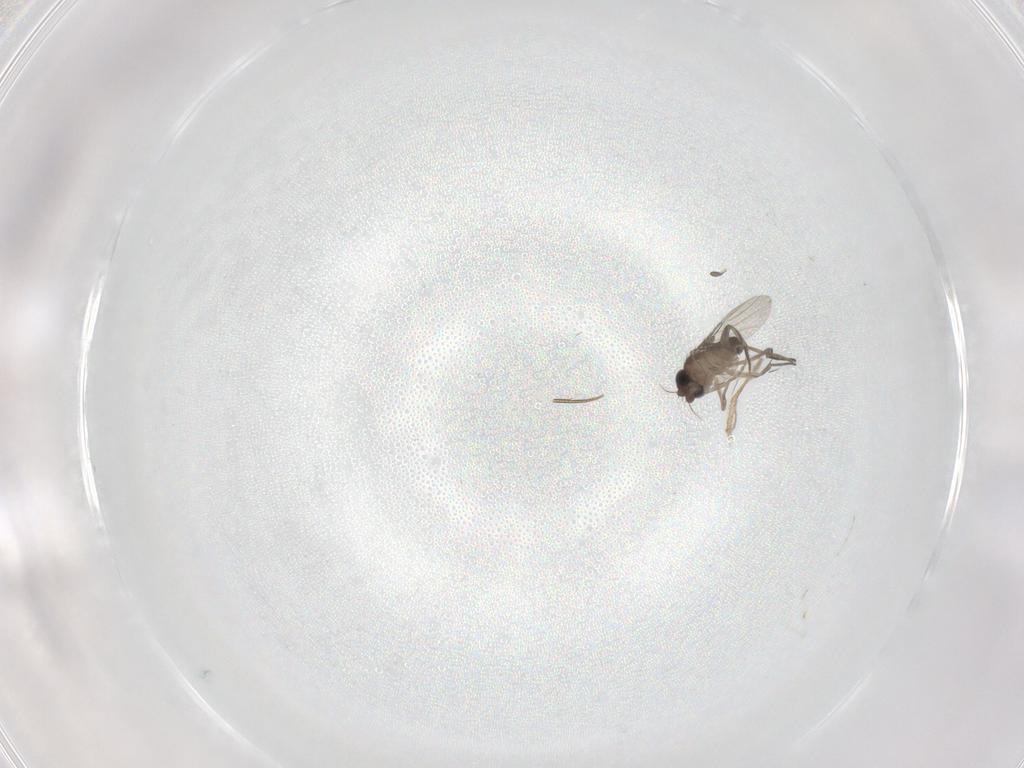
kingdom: Animalia
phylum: Arthropoda
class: Insecta
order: Diptera
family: Phoridae
